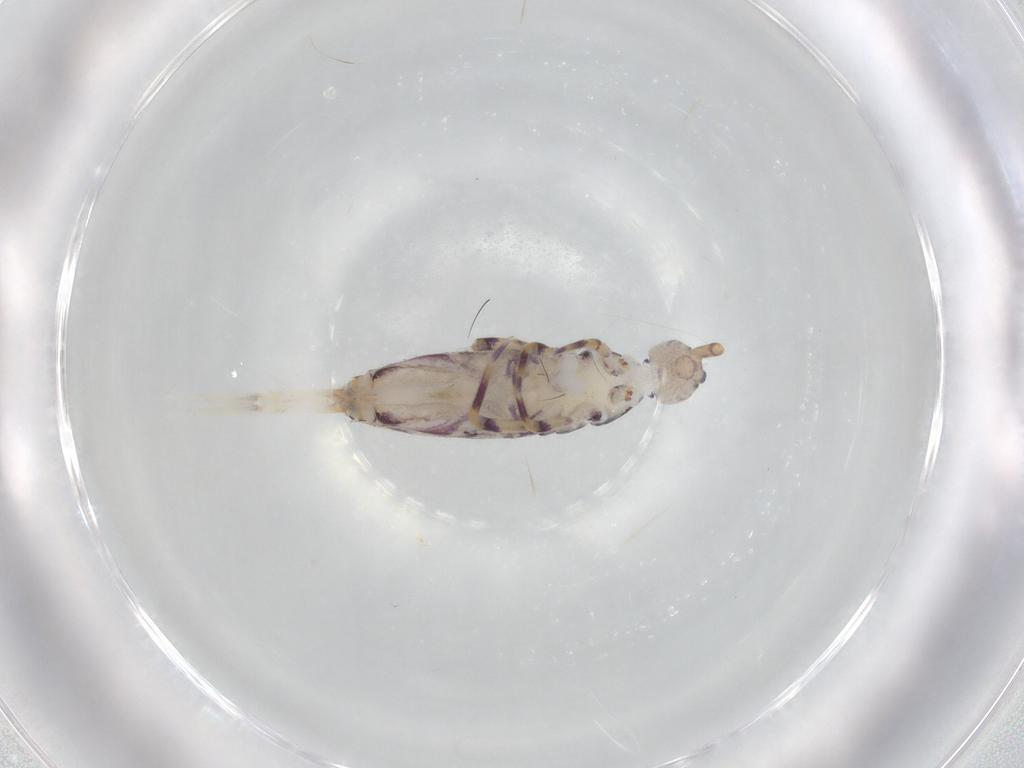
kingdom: Animalia
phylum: Arthropoda
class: Collembola
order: Entomobryomorpha
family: Entomobryidae
